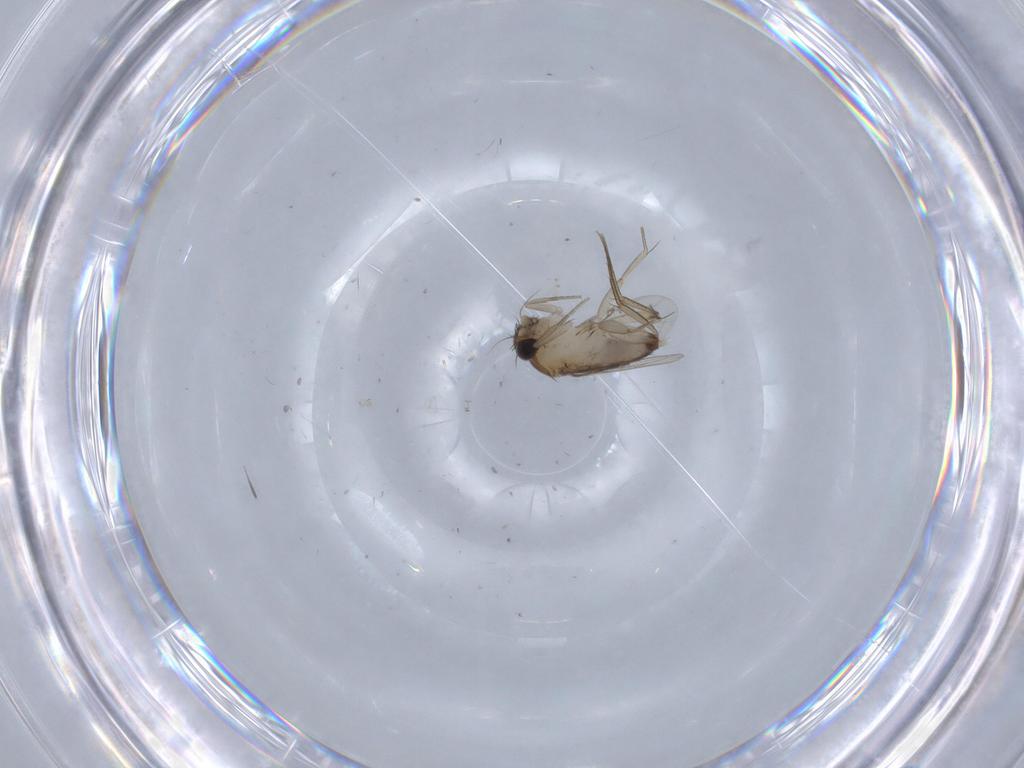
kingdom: Animalia
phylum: Arthropoda
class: Insecta
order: Diptera
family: Phoridae
